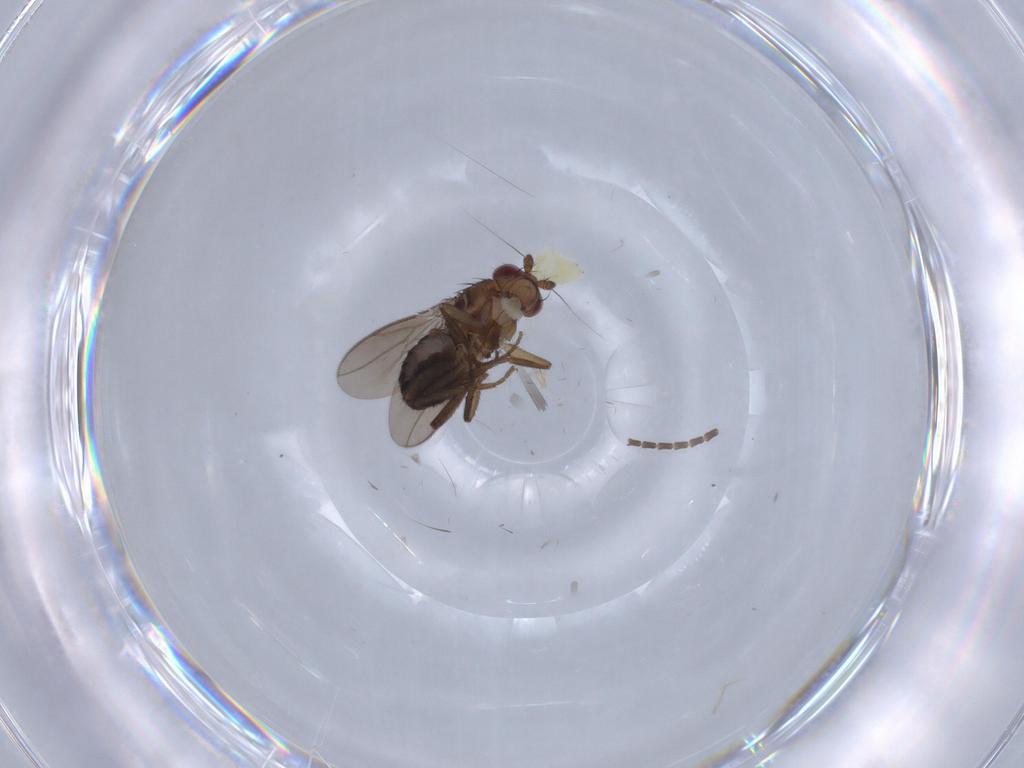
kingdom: Animalia
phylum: Arthropoda
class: Insecta
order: Diptera
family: Chironomidae
